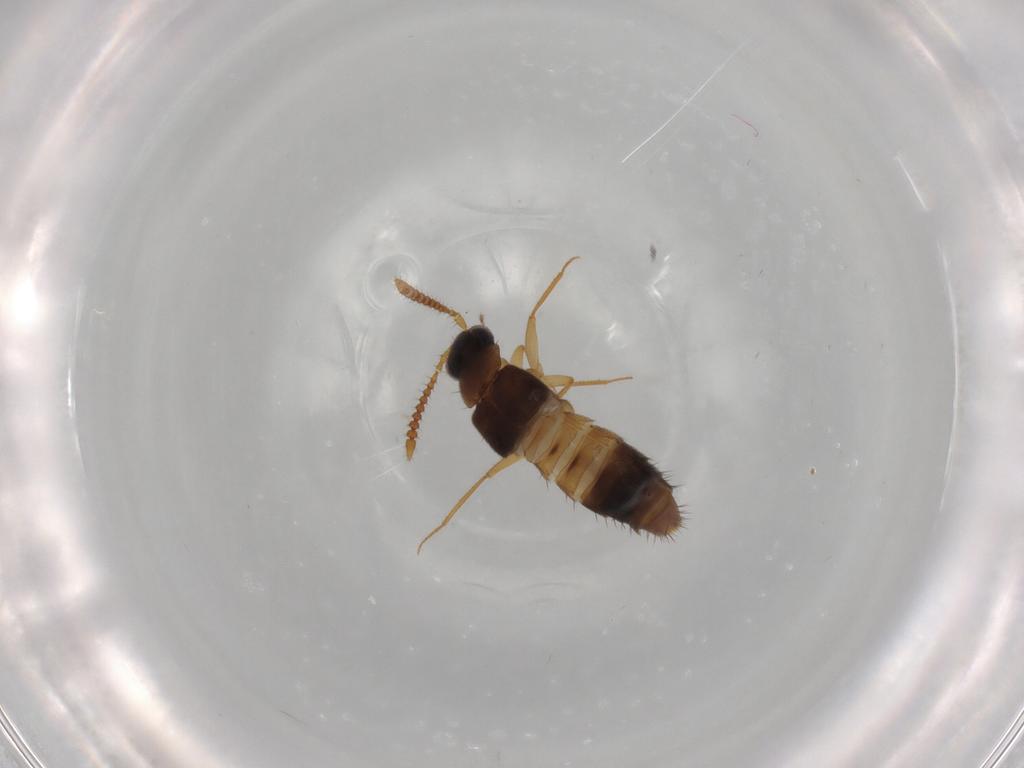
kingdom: Animalia
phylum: Arthropoda
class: Insecta
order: Coleoptera
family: Staphylinidae
